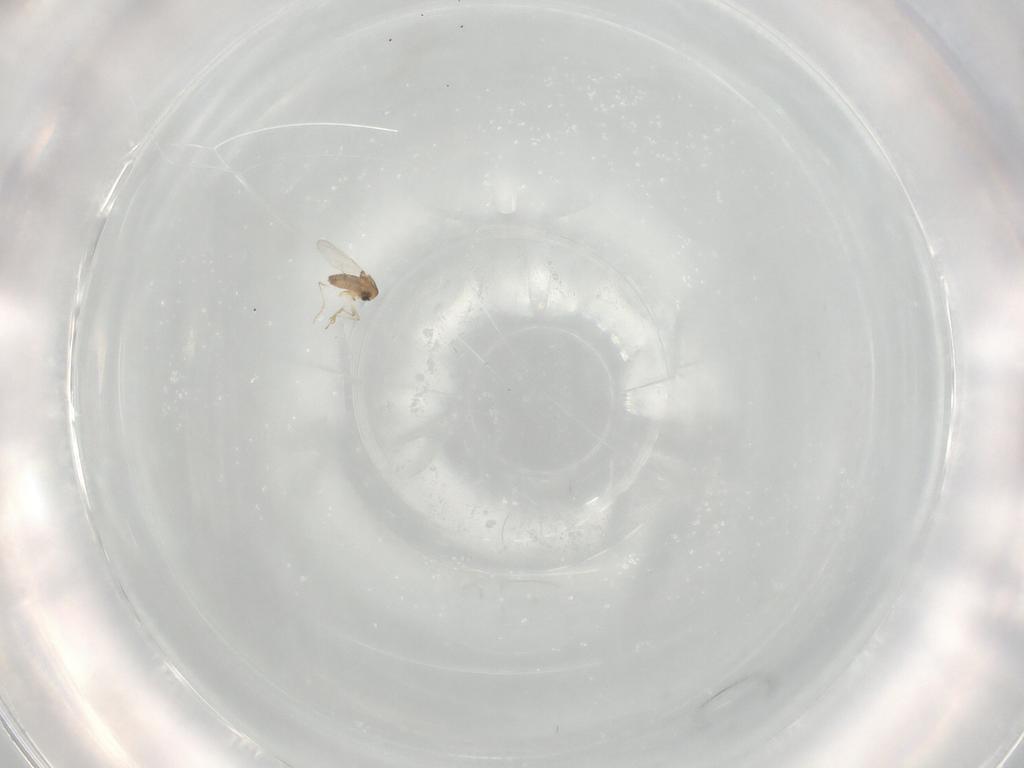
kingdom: Animalia
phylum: Arthropoda
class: Insecta
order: Diptera
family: Ceratopogonidae
